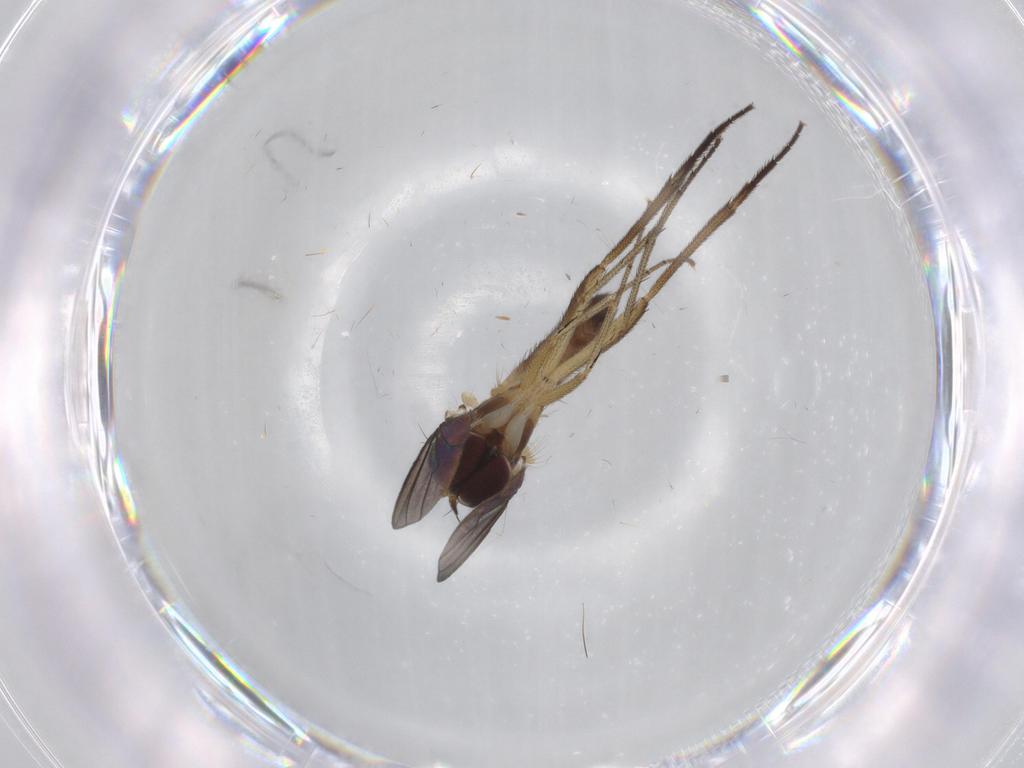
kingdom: Animalia
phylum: Arthropoda
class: Insecta
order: Diptera
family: Dolichopodidae
